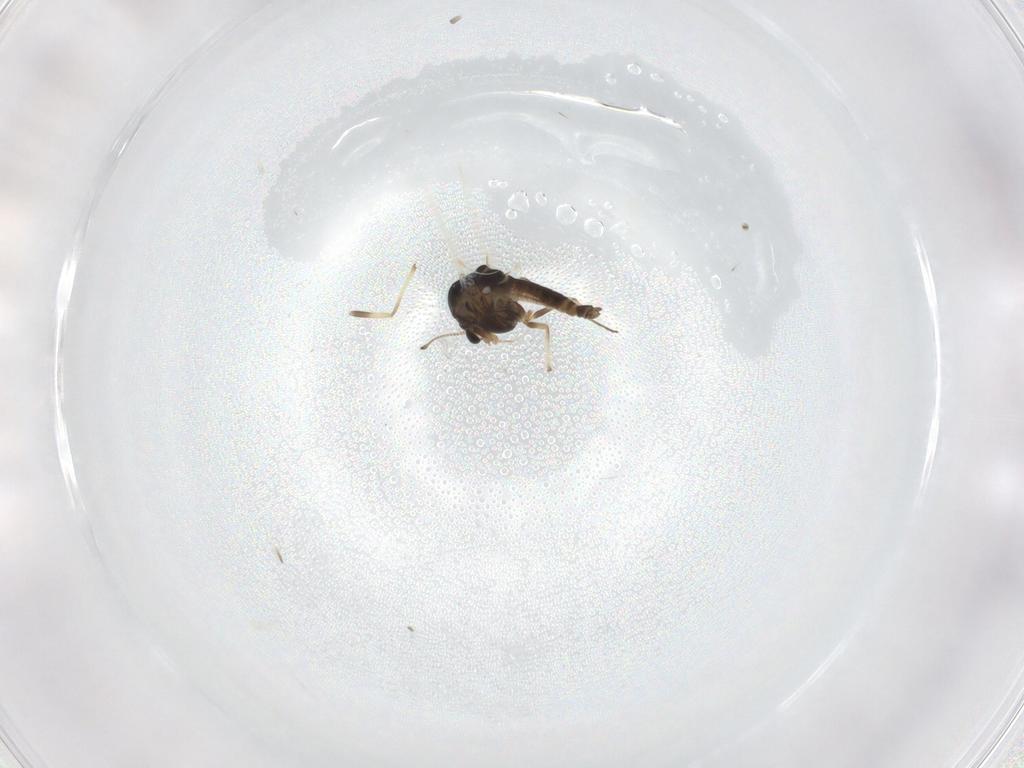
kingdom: Animalia
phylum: Arthropoda
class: Insecta
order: Diptera
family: Chironomidae
